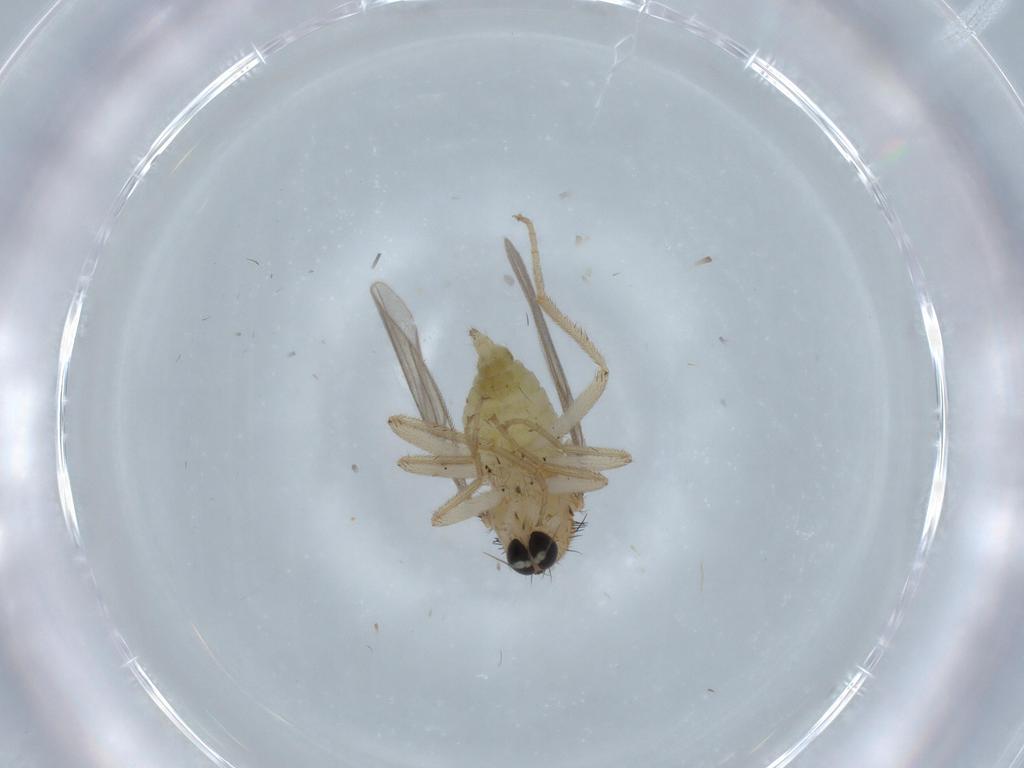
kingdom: Animalia
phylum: Arthropoda
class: Insecta
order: Diptera
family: Hybotidae
